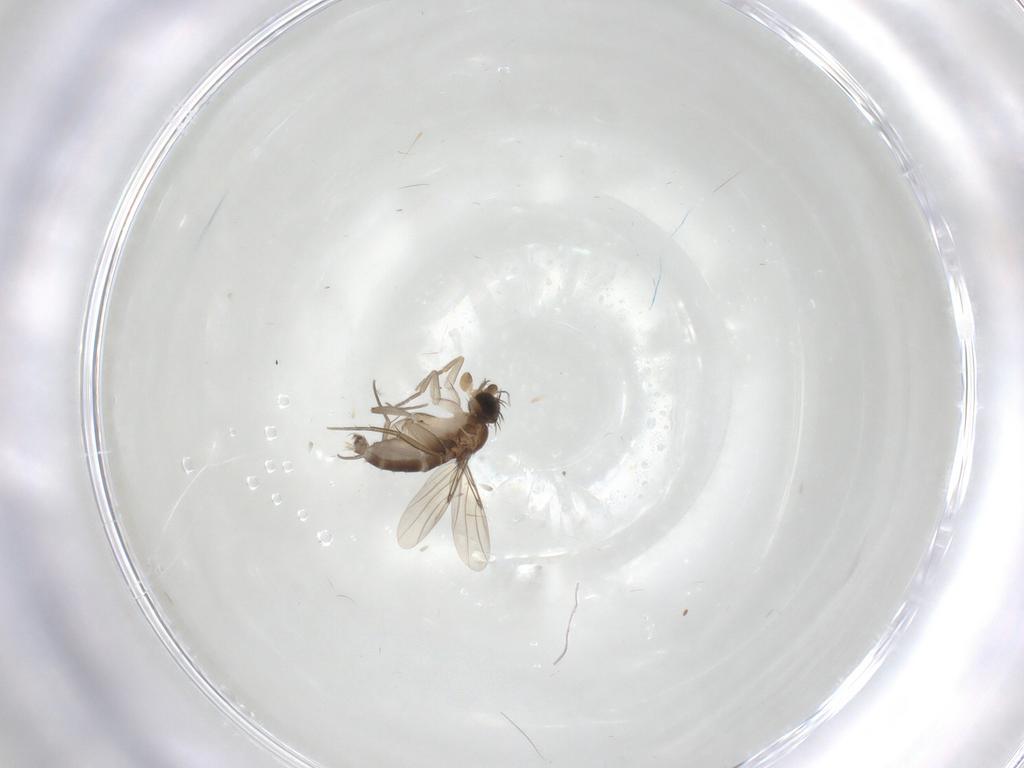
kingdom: Animalia
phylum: Arthropoda
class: Insecta
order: Diptera
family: Phoridae
